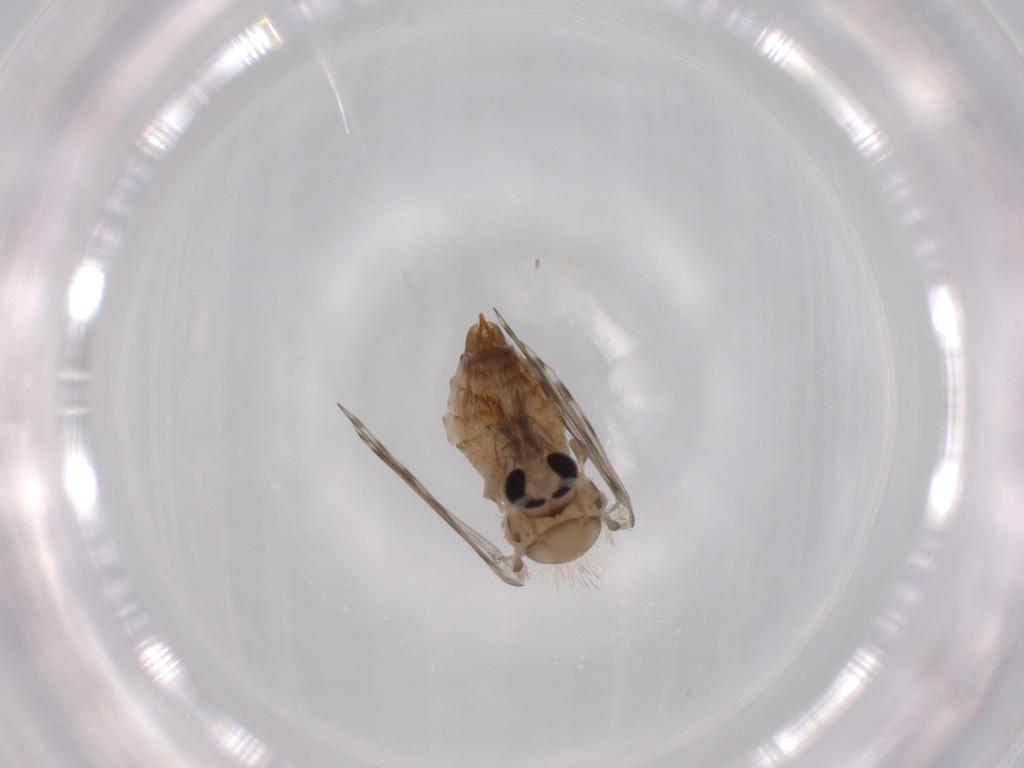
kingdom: Animalia
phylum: Arthropoda
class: Insecta
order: Diptera
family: Psychodidae
